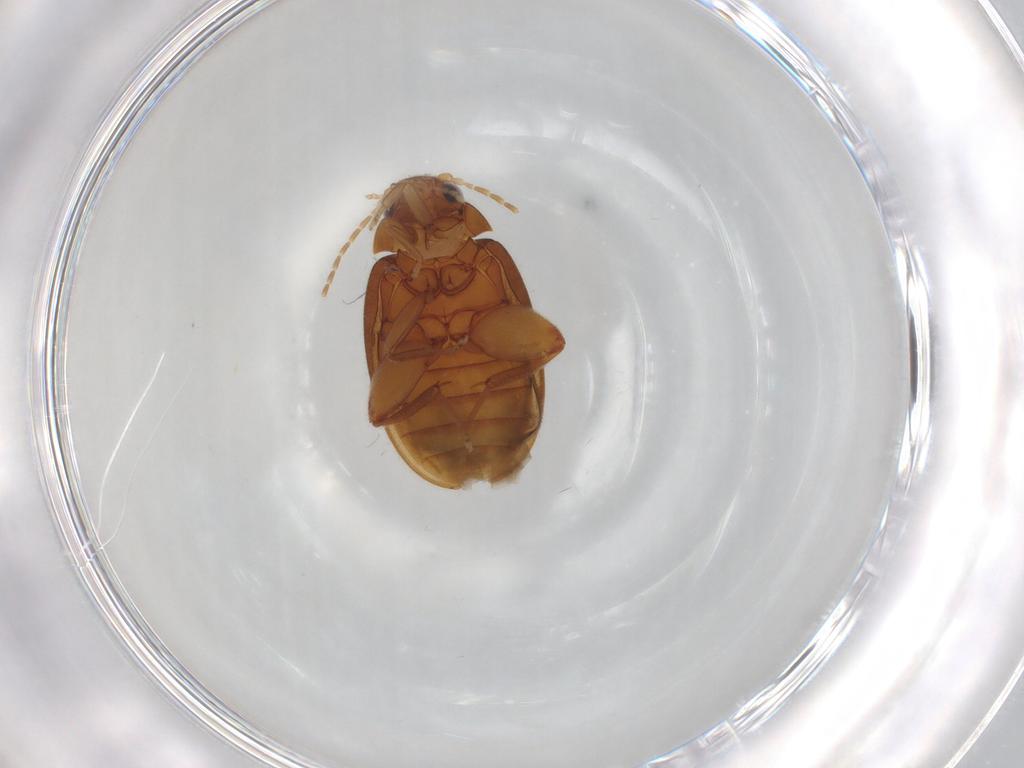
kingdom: Animalia
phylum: Arthropoda
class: Insecta
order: Coleoptera
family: Scirtidae
